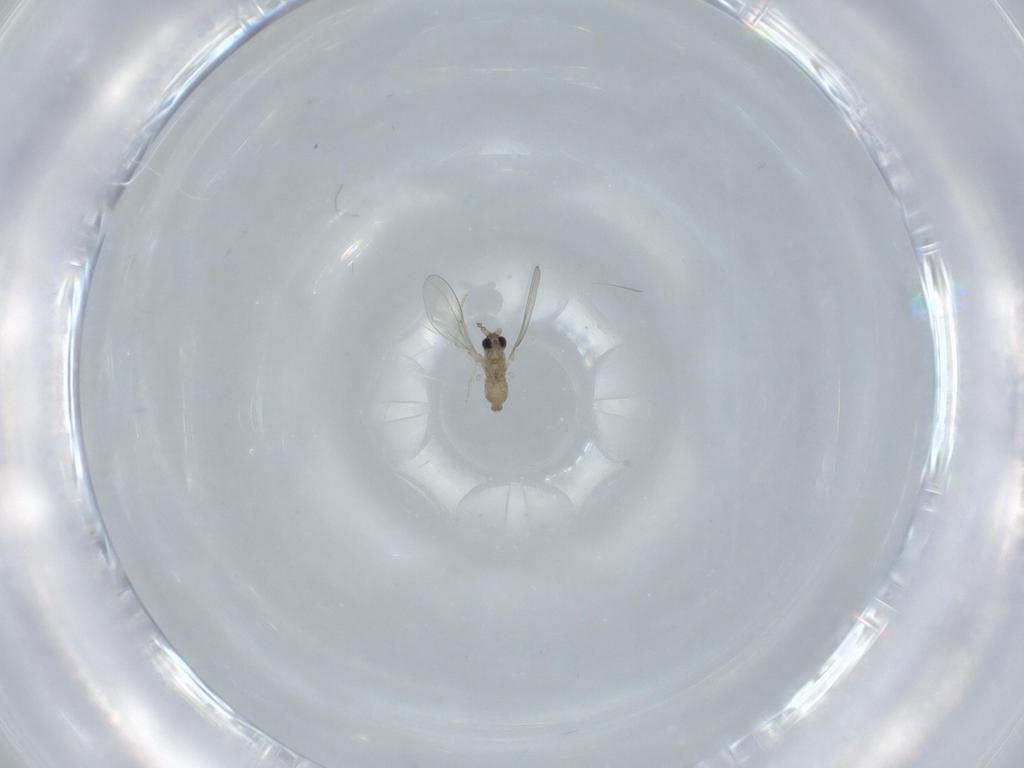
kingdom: Animalia
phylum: Arthropoda
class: Insecta
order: Diptera
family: Cecidomyiidae
